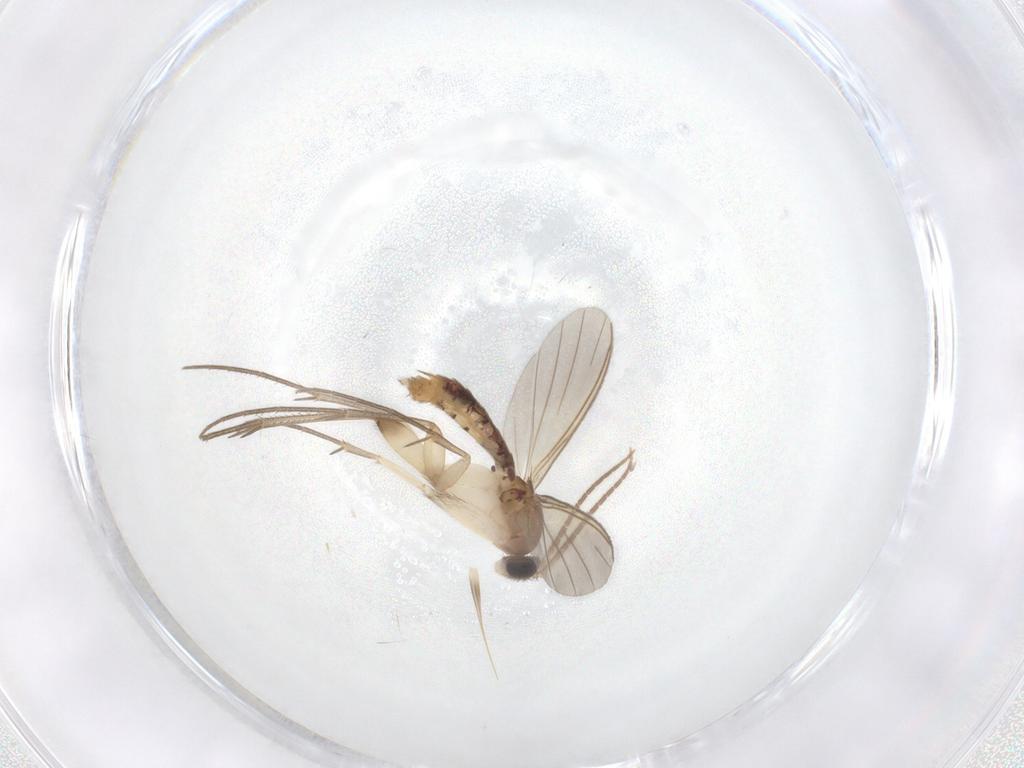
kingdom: Animalia
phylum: Arthropoda
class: Insecta
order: Diptera
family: Mycetophilidae
